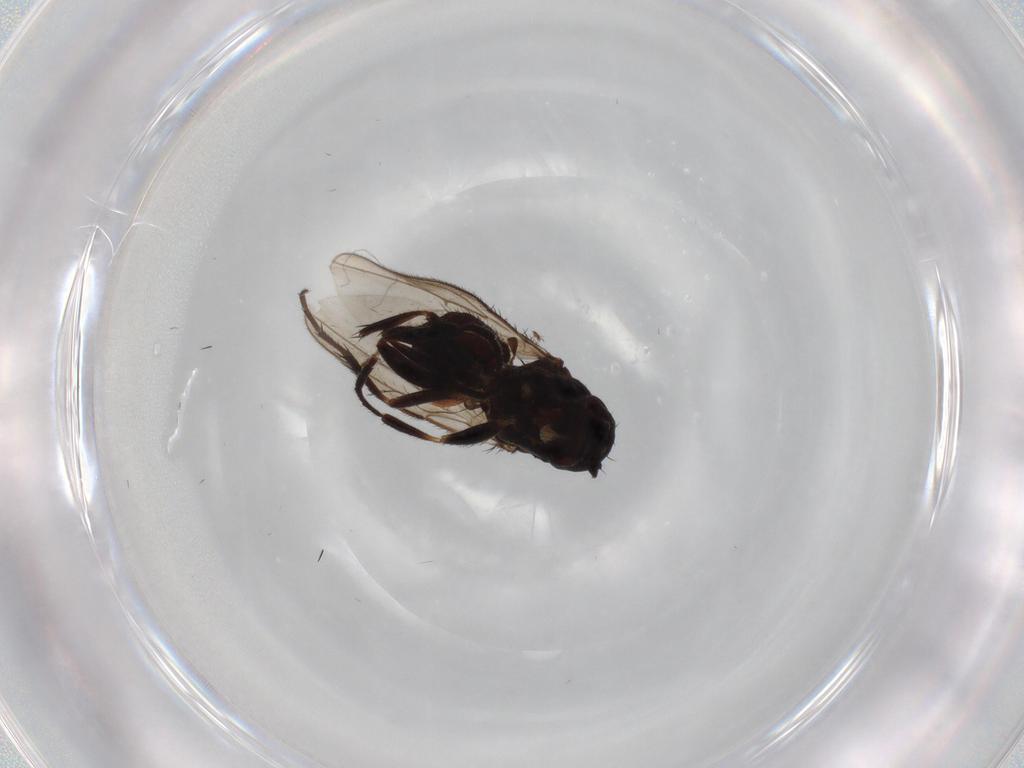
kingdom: Animalia
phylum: Arthropoda
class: Insecta
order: Diptera
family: Sphaeroceridae
